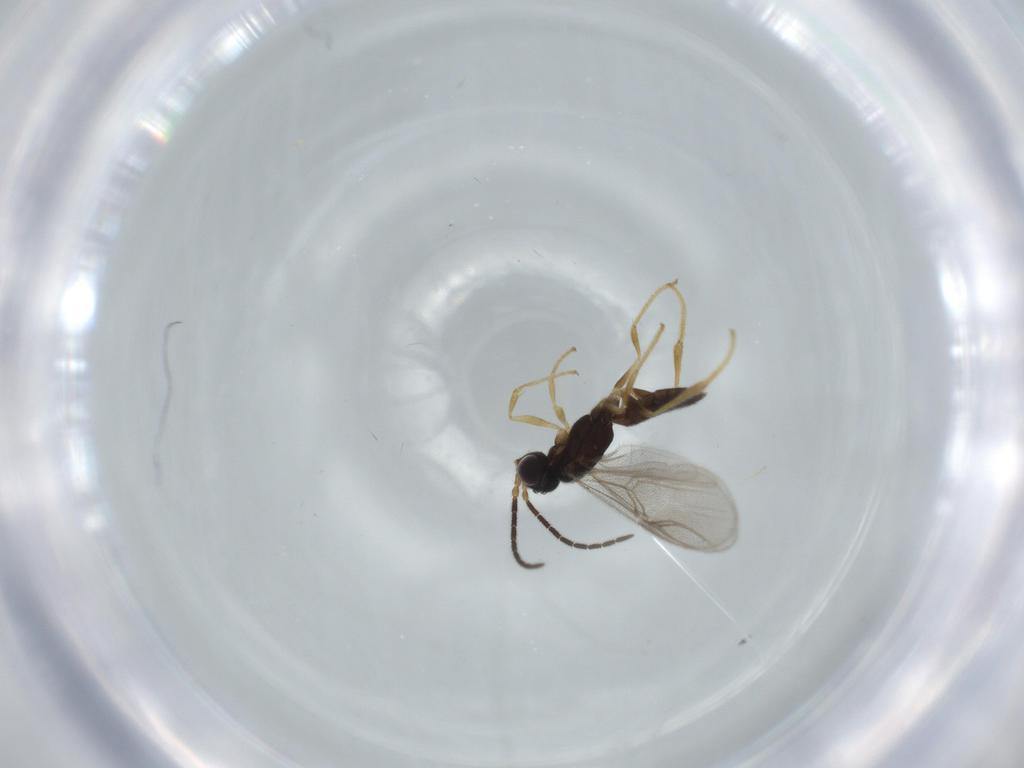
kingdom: Animalia
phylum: Arthropoda
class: Insecta
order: Hymenoptera
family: Dryinidae
